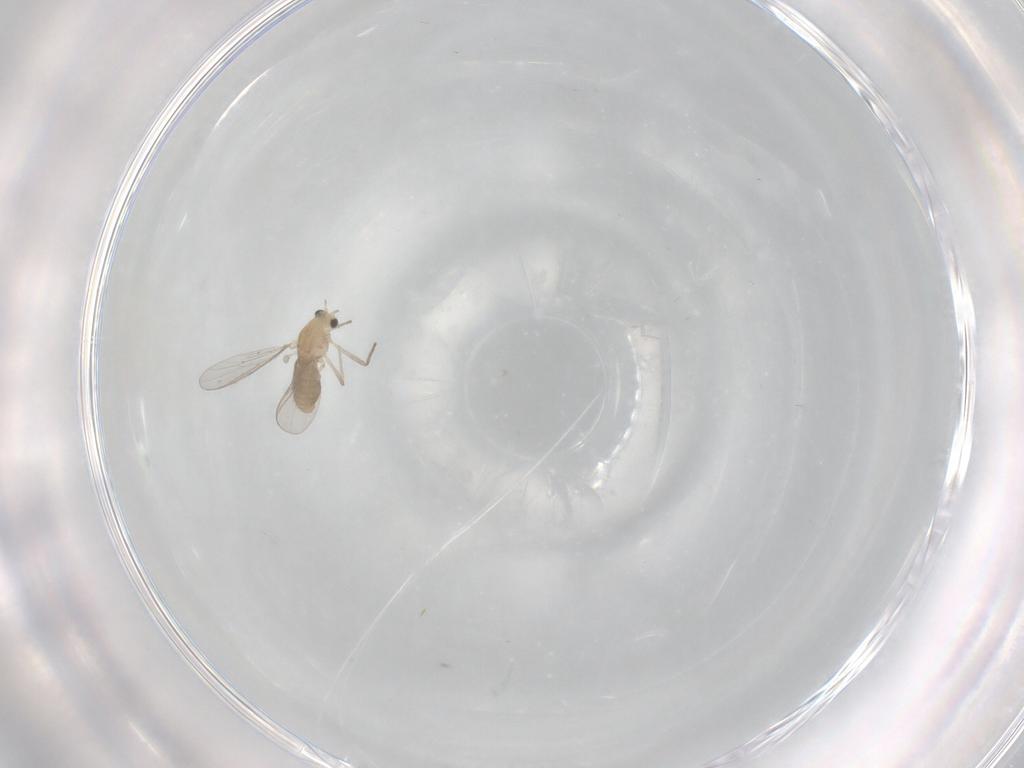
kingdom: Animalia
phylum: Arthropoda
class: Insecta
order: Diptera
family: Chironomidae
